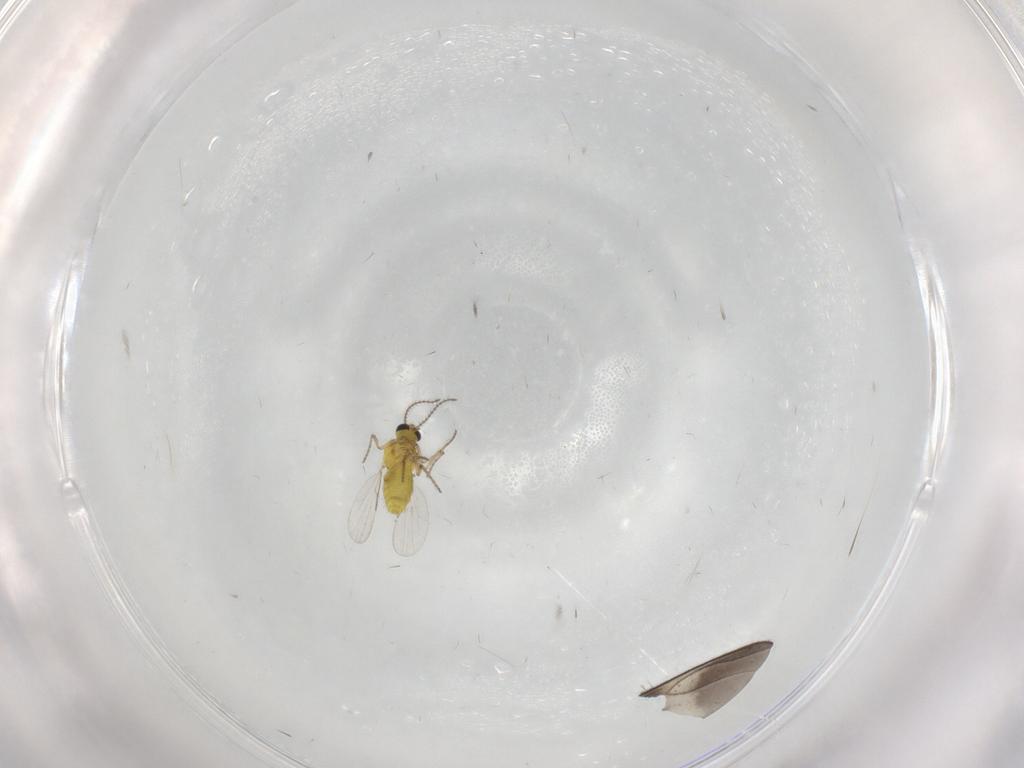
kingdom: Animalia
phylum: Arthropoda
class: Insecta
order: Diptera
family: Ceratopogonidae
